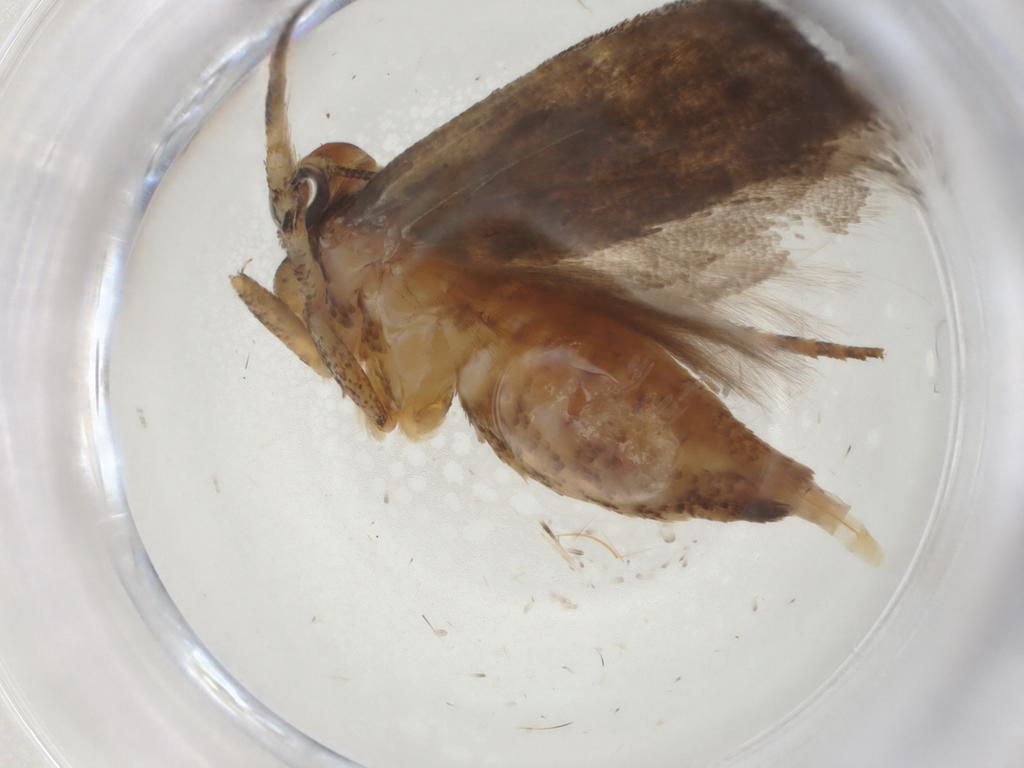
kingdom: Animalia
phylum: Arthropoda
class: Insecta
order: Lepidoptera
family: Gelechiidae
